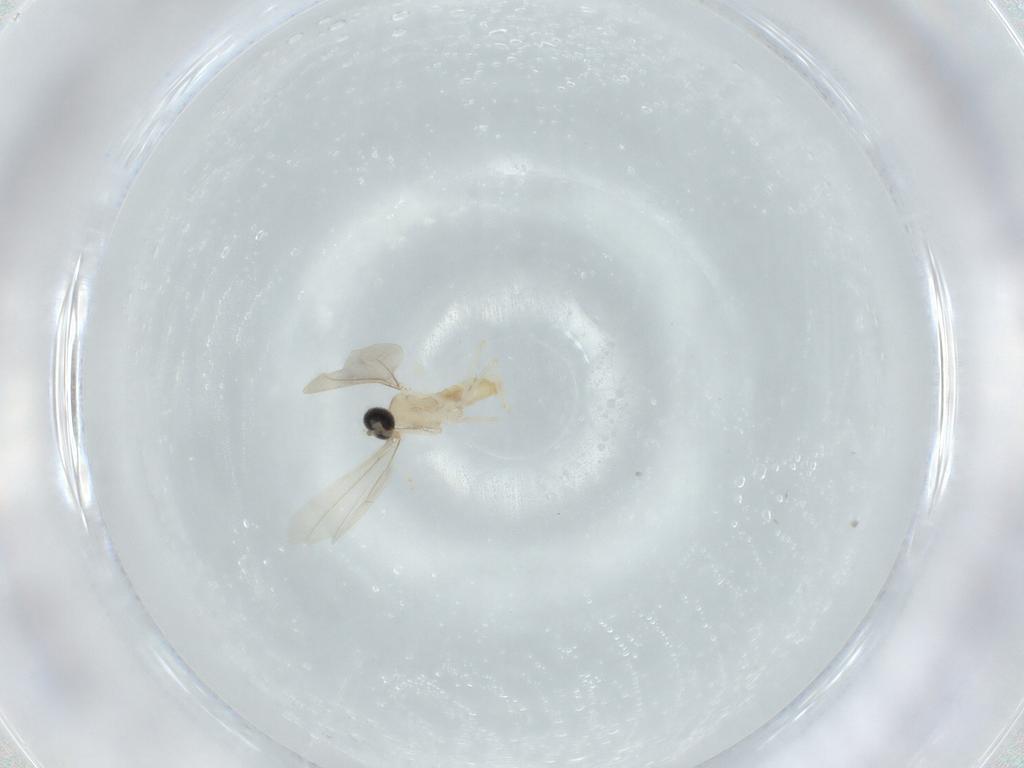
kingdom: Animalia
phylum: Arthropoda
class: Insecta
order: Diptera
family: Cecidomyiidae
